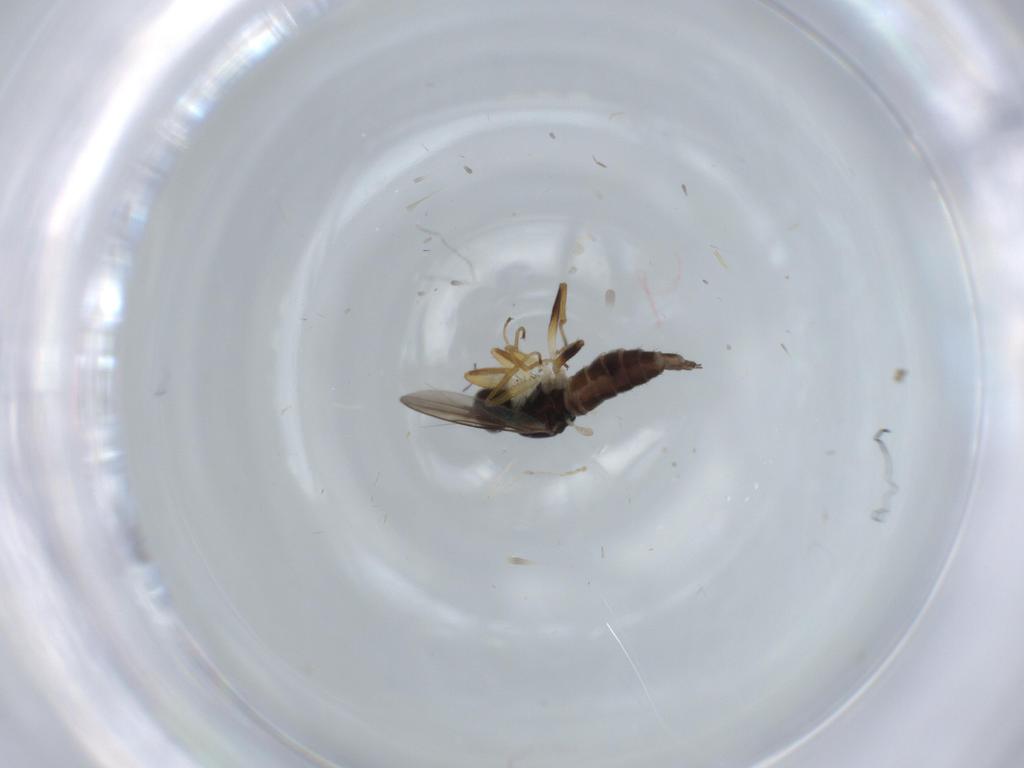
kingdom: Animalia
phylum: Arthropoda
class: Insecta
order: Diptera
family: Hybotidae
